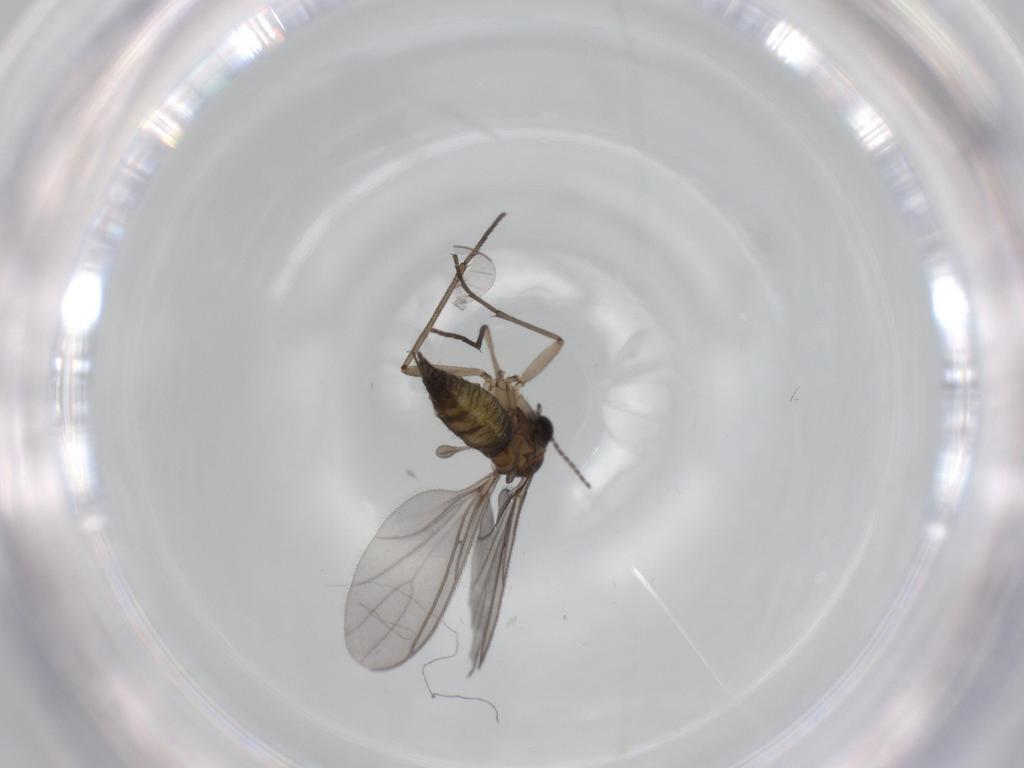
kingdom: Animalia
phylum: Arthropoda
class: Insecta
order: Diptera
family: Sciaridae
